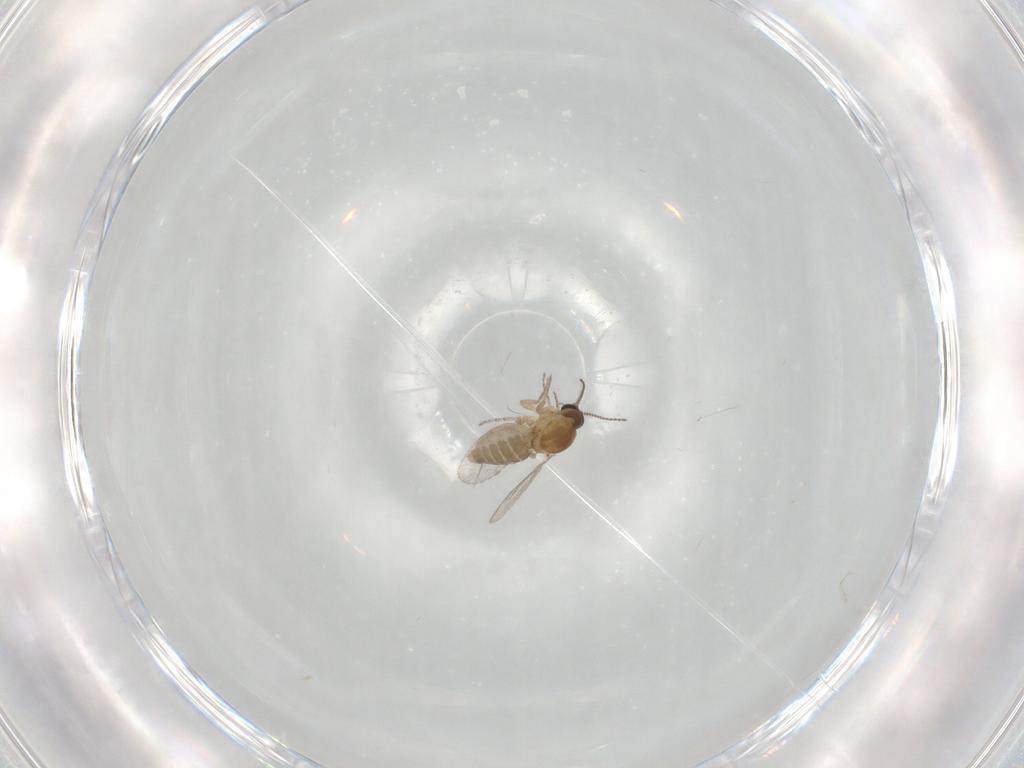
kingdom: Animalia
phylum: Arthropoda
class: Insecta
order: Diptera
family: Ceratopogonidae
